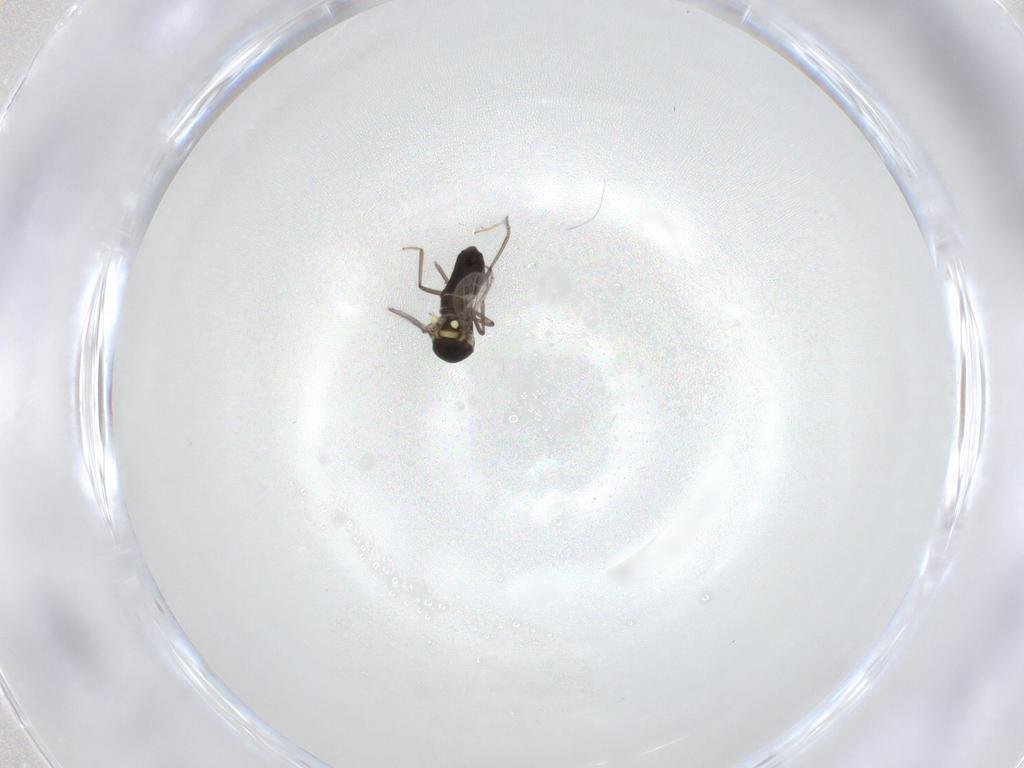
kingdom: Animalia
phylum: Arthropoda
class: Insecta
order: Diptera
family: Ceratopogonidae
